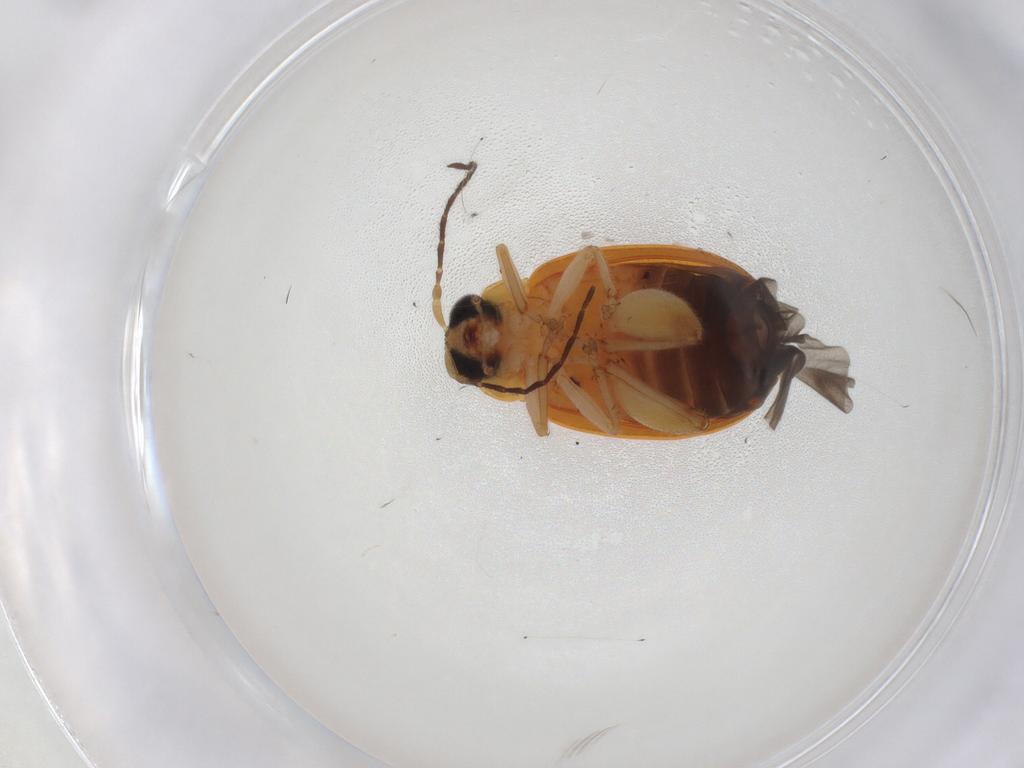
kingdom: Animalia
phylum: Arthropoda
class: Insecta
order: Coleoptera
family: Chrysomelidae
